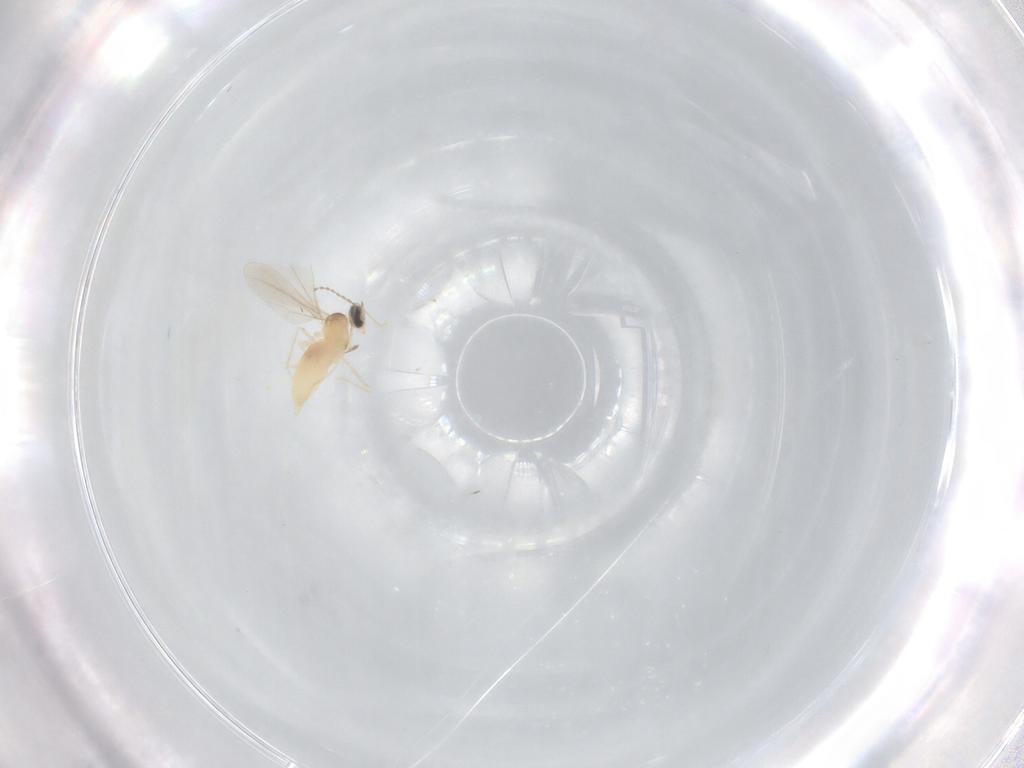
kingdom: Animalia
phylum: Arthropoda
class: Insecta
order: Diptera
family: Cecidomyiidae
